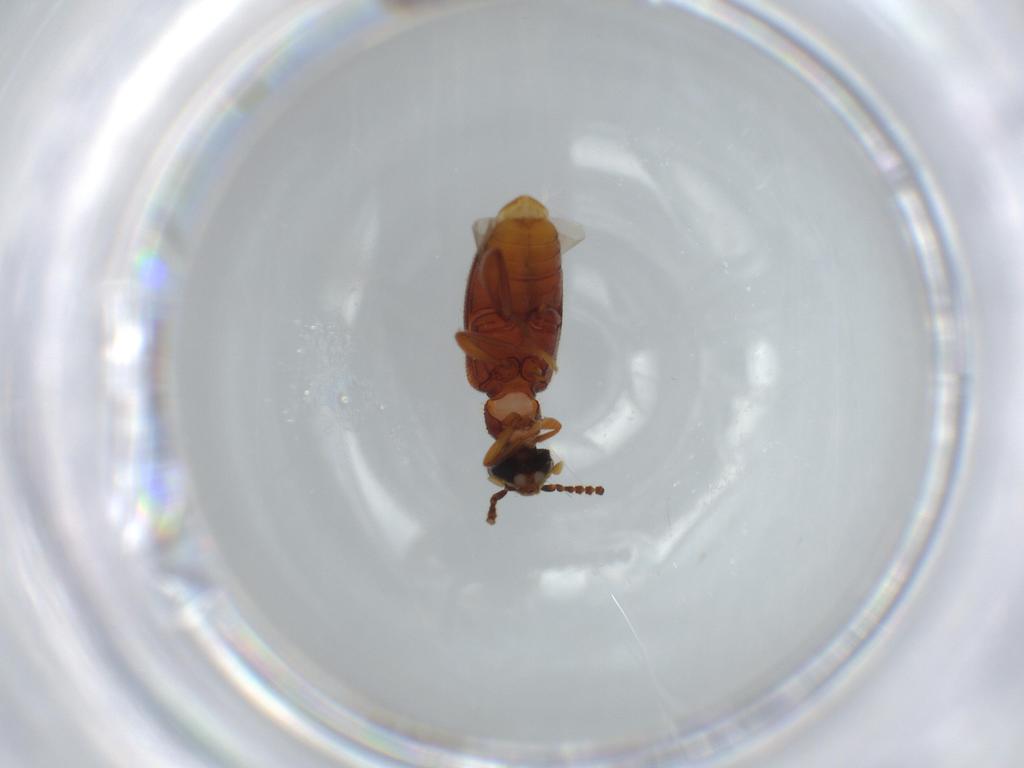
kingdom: Animalia
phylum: Arthropoda
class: Insecta
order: Coleoptera
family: Aderidae
